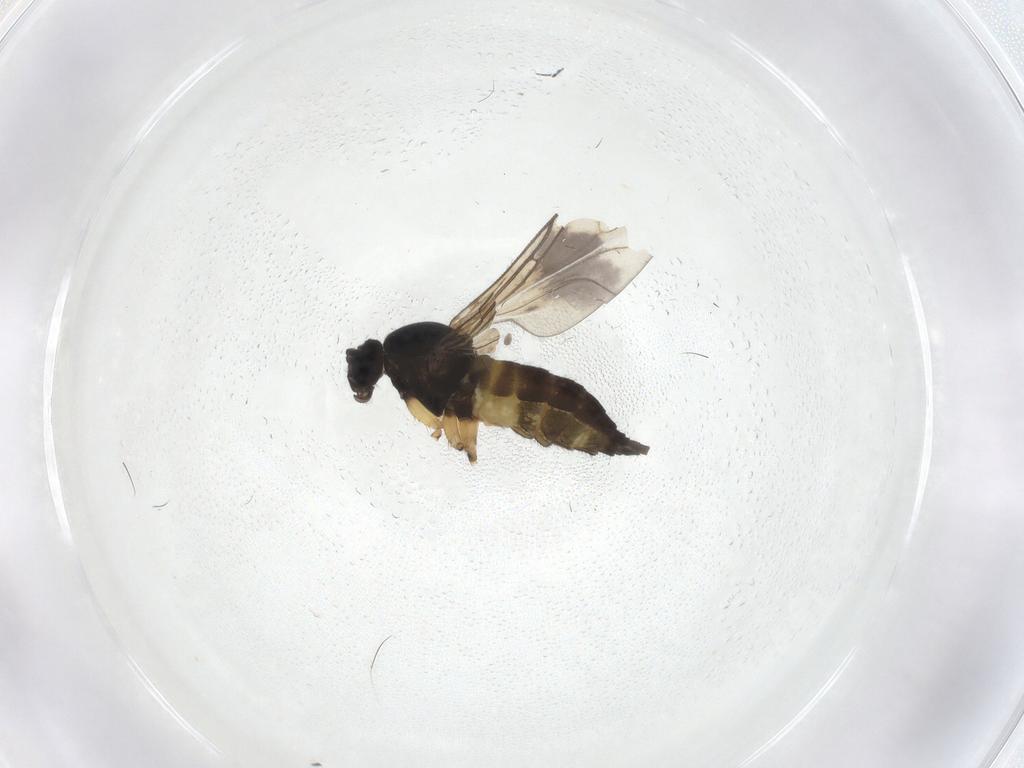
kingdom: Animalia
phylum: Arthropoda
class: Insecta
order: Diptera
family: Sciaridae
